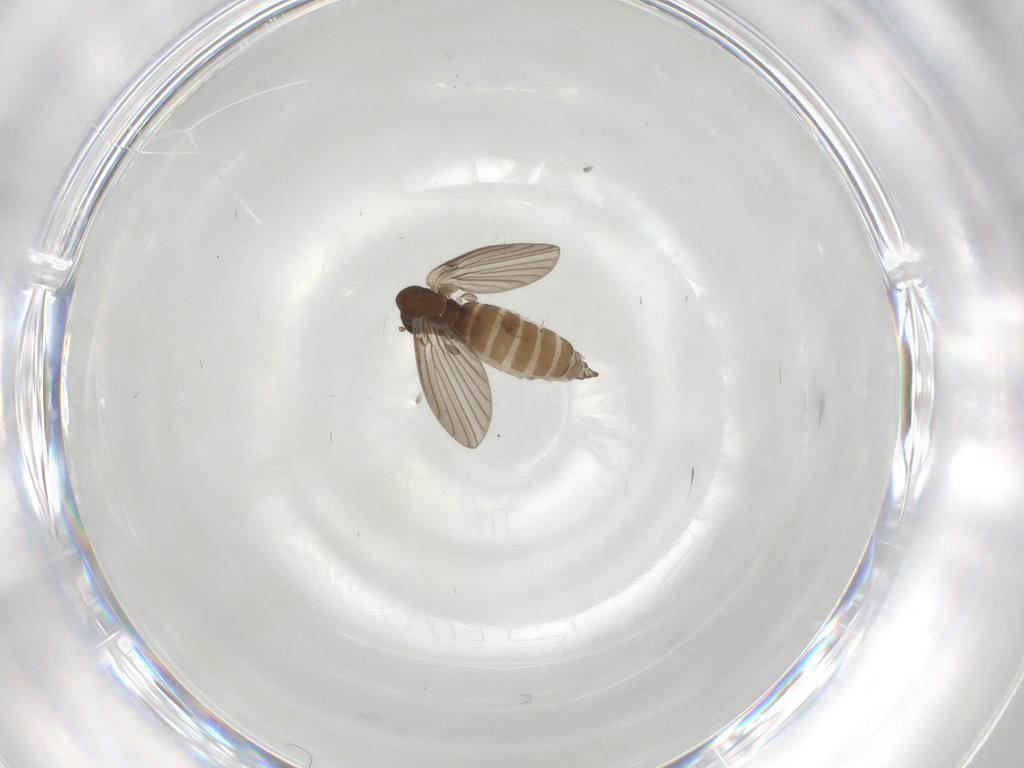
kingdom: Animalia
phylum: Arthropoda
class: Insecta
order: Diptera
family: Psychodidae
